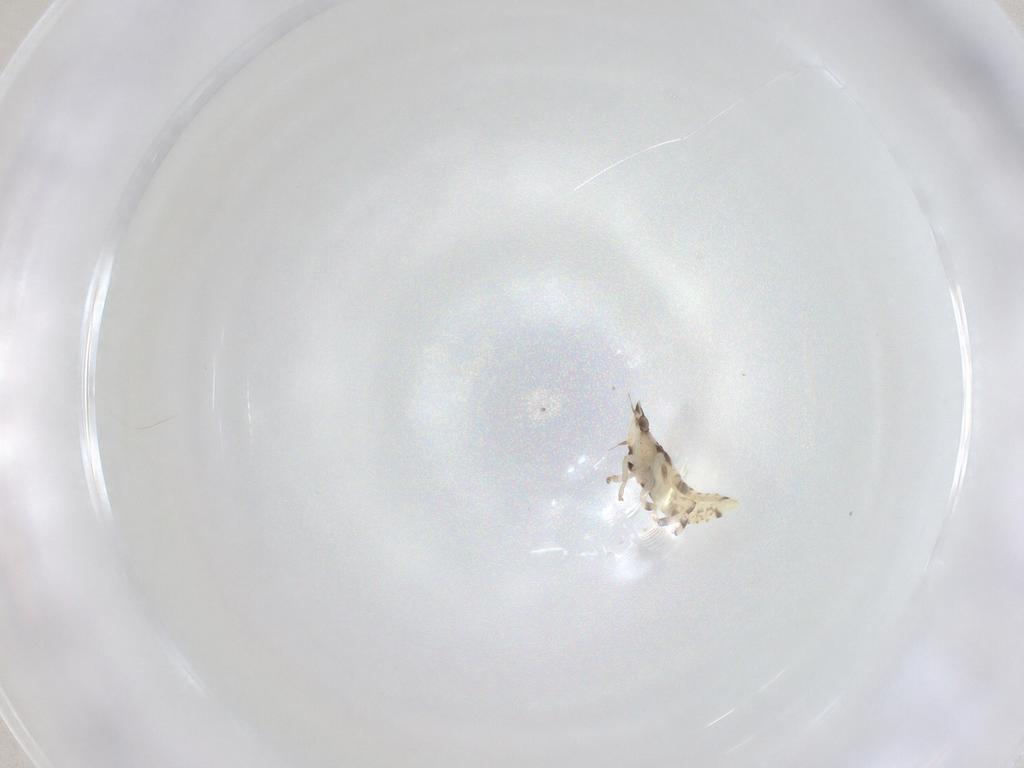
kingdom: Animalia
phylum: Arthropoda
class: Insecta
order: Hemiptera
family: Cicadellidae
